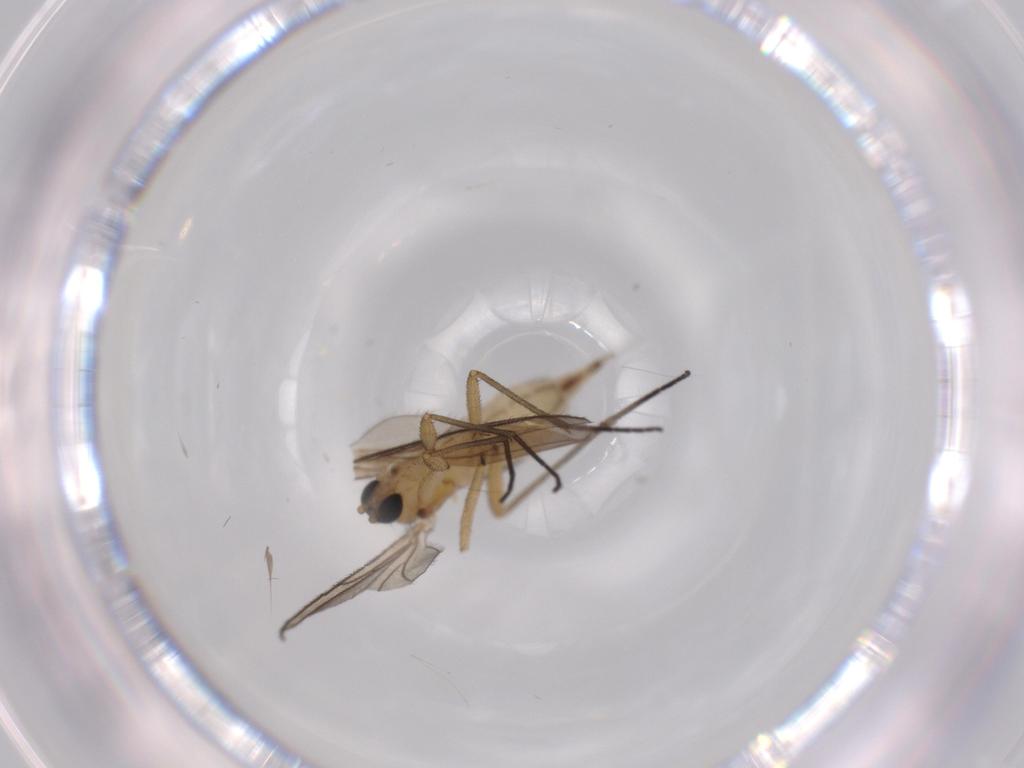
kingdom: Animalia
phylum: Arthropoda
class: Insecta
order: Diptera
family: Sciaridae
